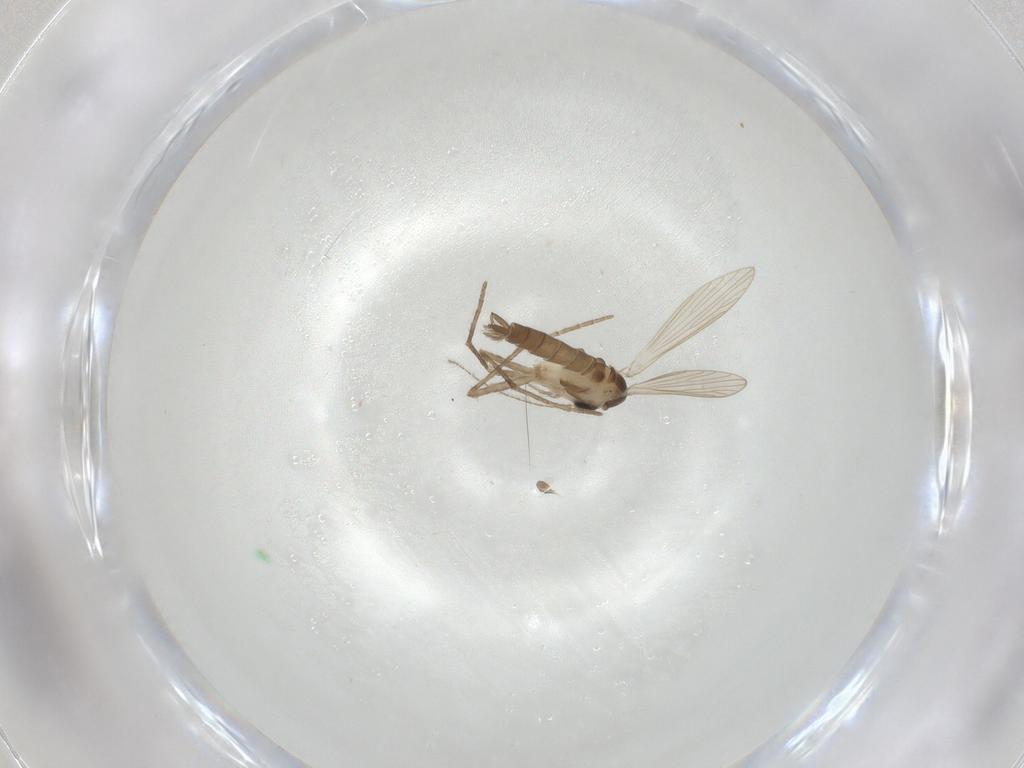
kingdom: Animalia
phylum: Arthropoda
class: Insecta
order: Diptera
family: Psychodidae
